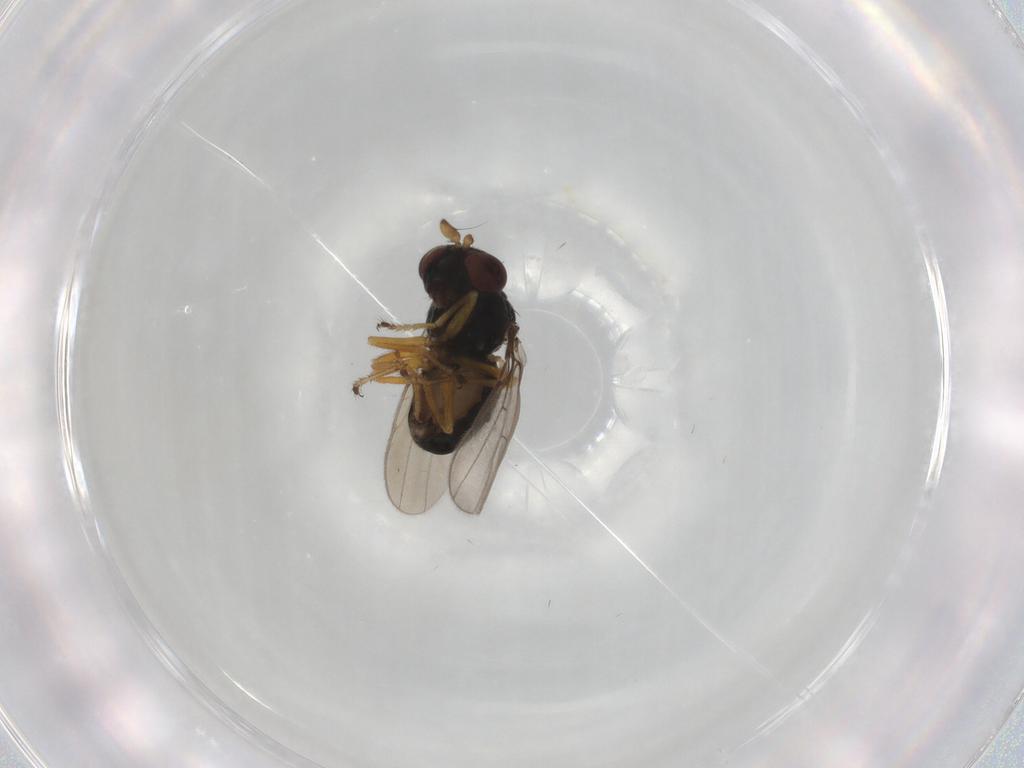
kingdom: Animalia
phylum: Arthropoda
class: Insecta
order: Diptera
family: Ephydridae
